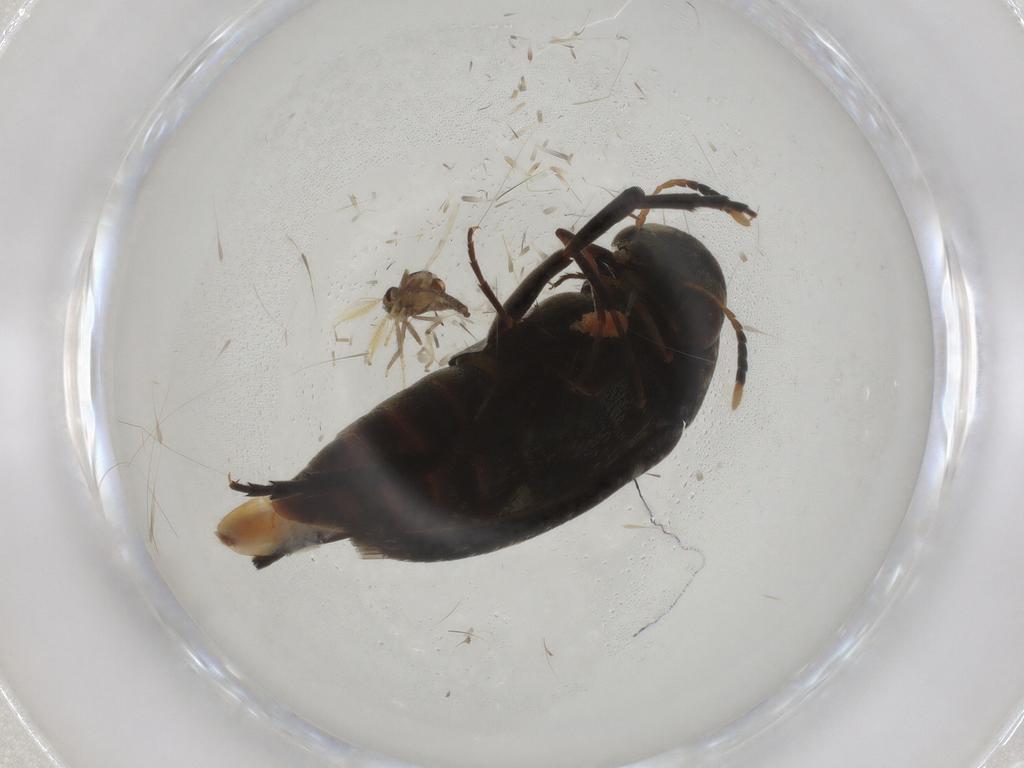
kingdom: Animalia
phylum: Arthropoda
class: Insecta
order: Diptera
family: Ceratopogonidae
